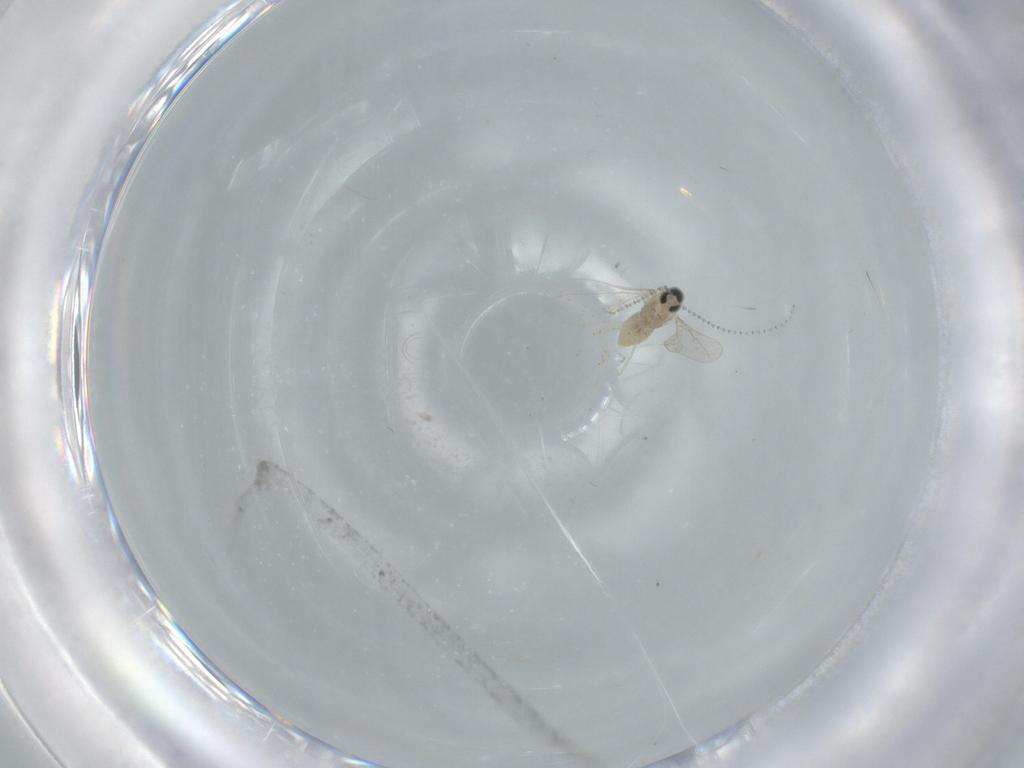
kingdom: Animalia
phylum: Arthropoda
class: Insecta
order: Diptera
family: Cecidomyiidae
